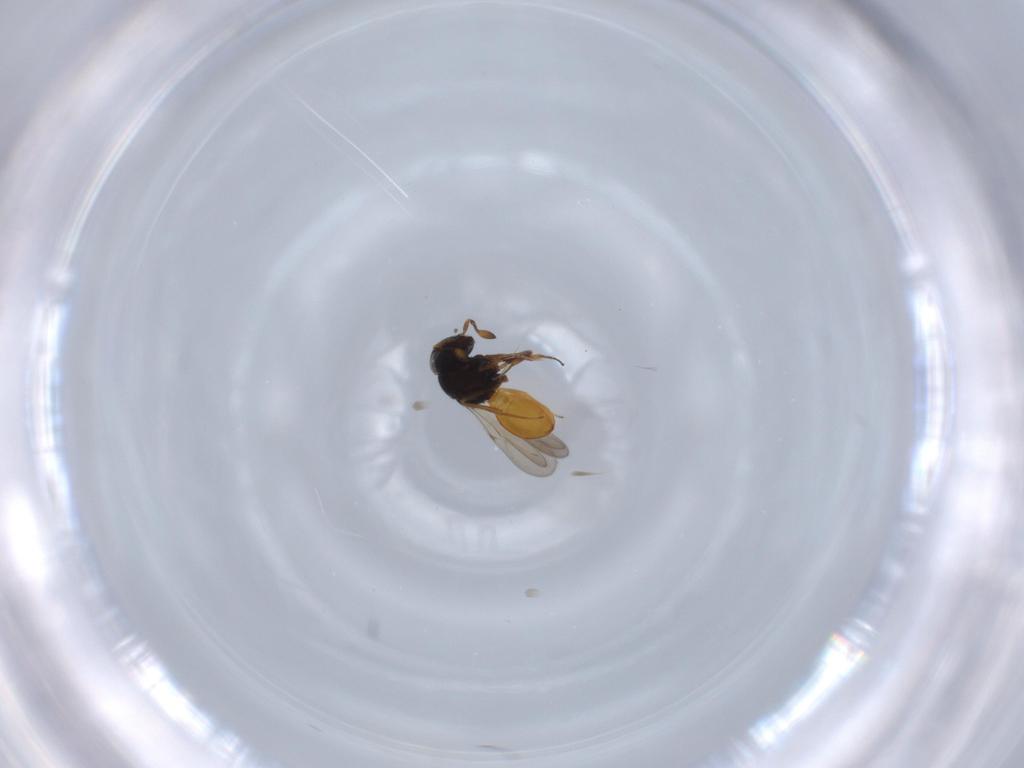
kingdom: Animalia
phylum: Arthropoda
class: Insecta
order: Hymenoptera
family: Scelionidae
